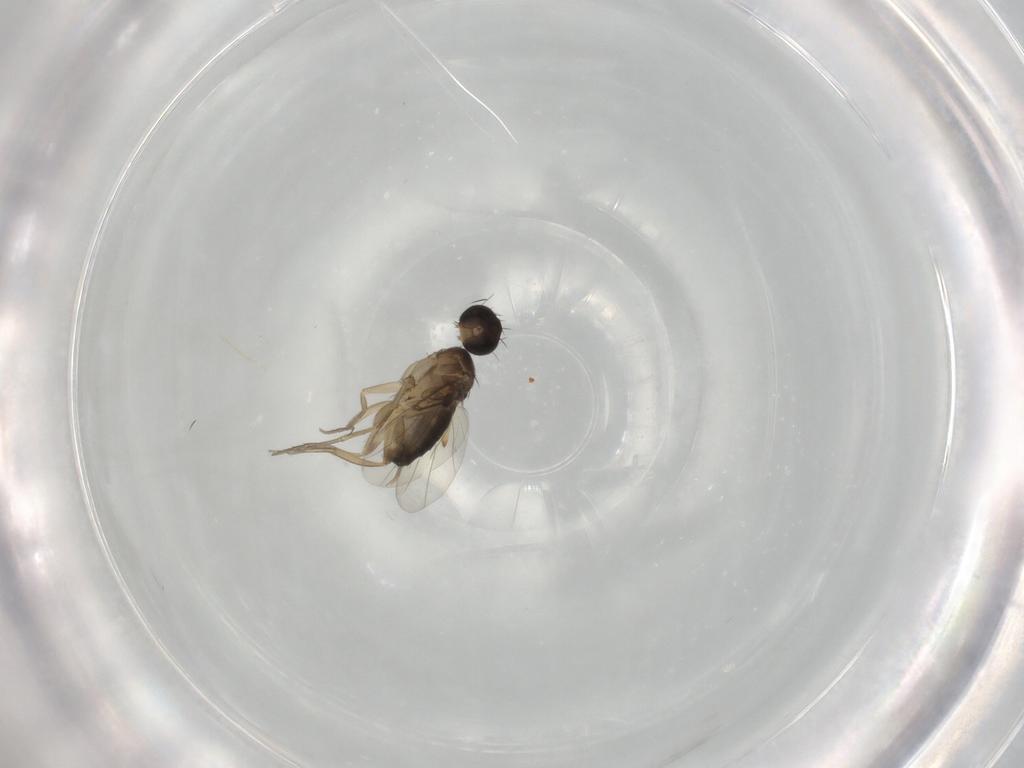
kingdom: Animalia
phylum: Arthropoda
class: Insecta
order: Diptera
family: Phoridae
